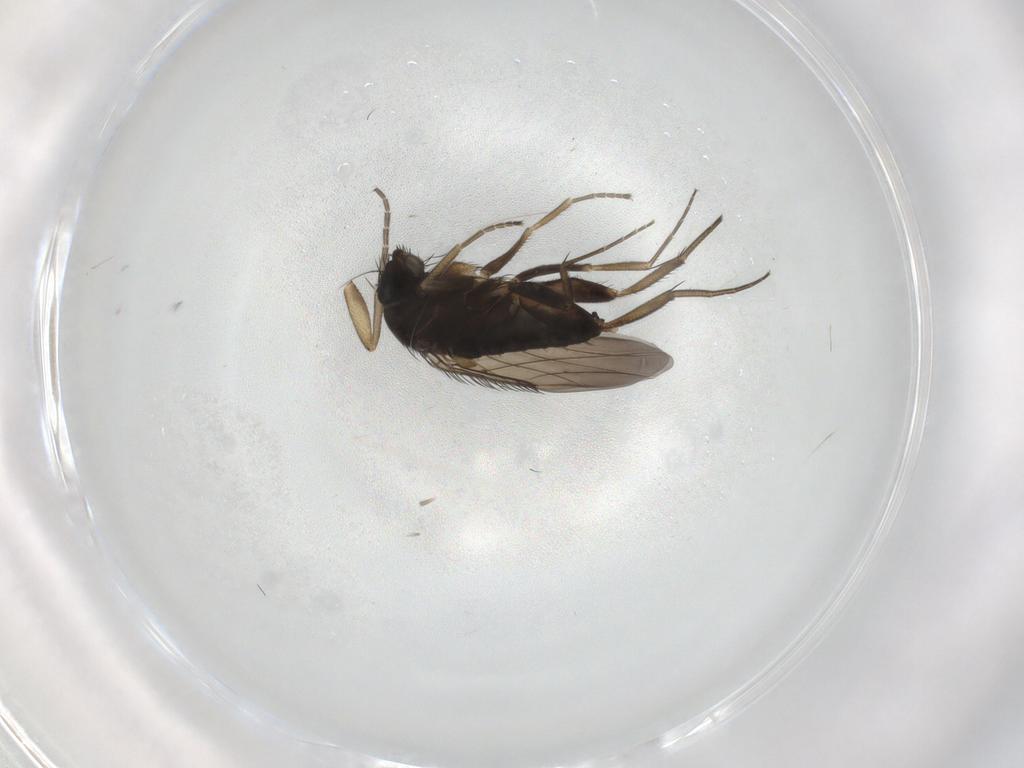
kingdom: Animalia
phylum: Arthropoda
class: Insecta
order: Diptera
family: Phoridae
